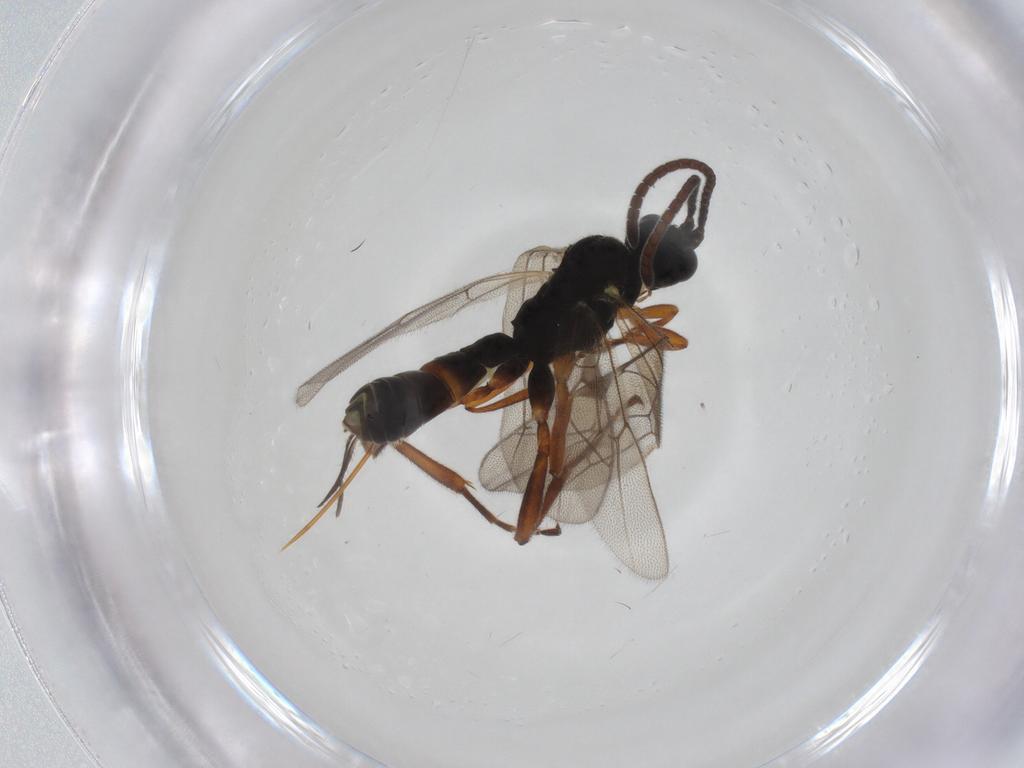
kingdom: Animalia
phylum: Arthropoda
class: Insecta
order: Hymenoptera
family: Ichneumonidae
